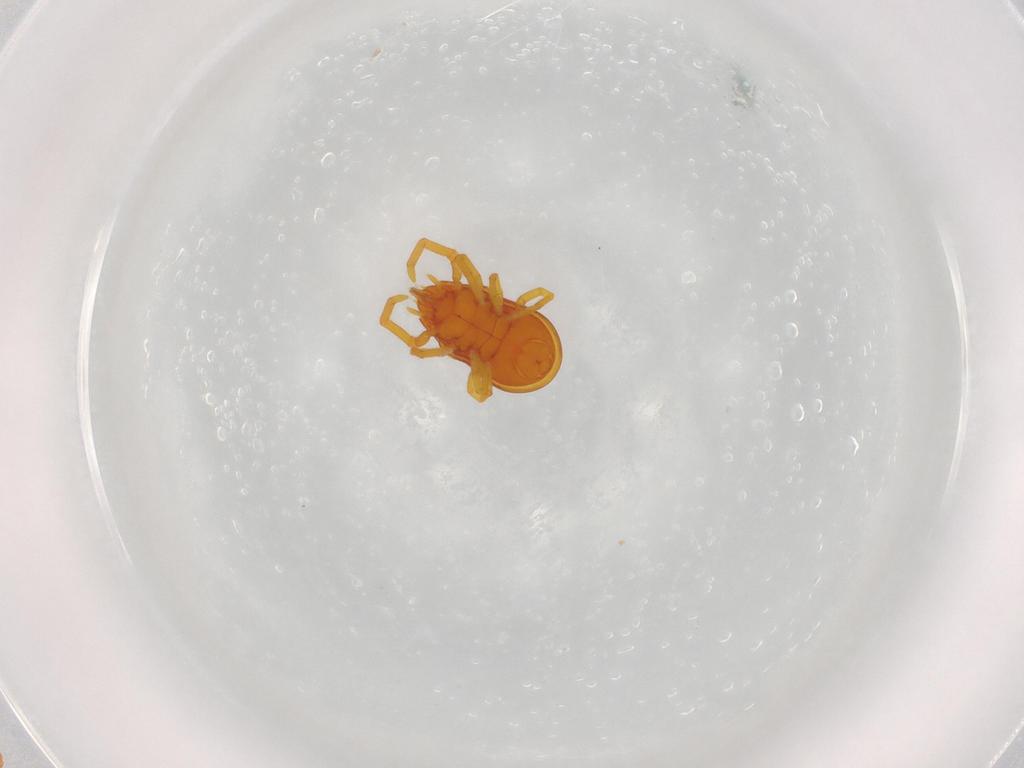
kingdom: Animalia
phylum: Arthropoda
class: Arachnida
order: Trombidiformes
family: Labidostommidae
